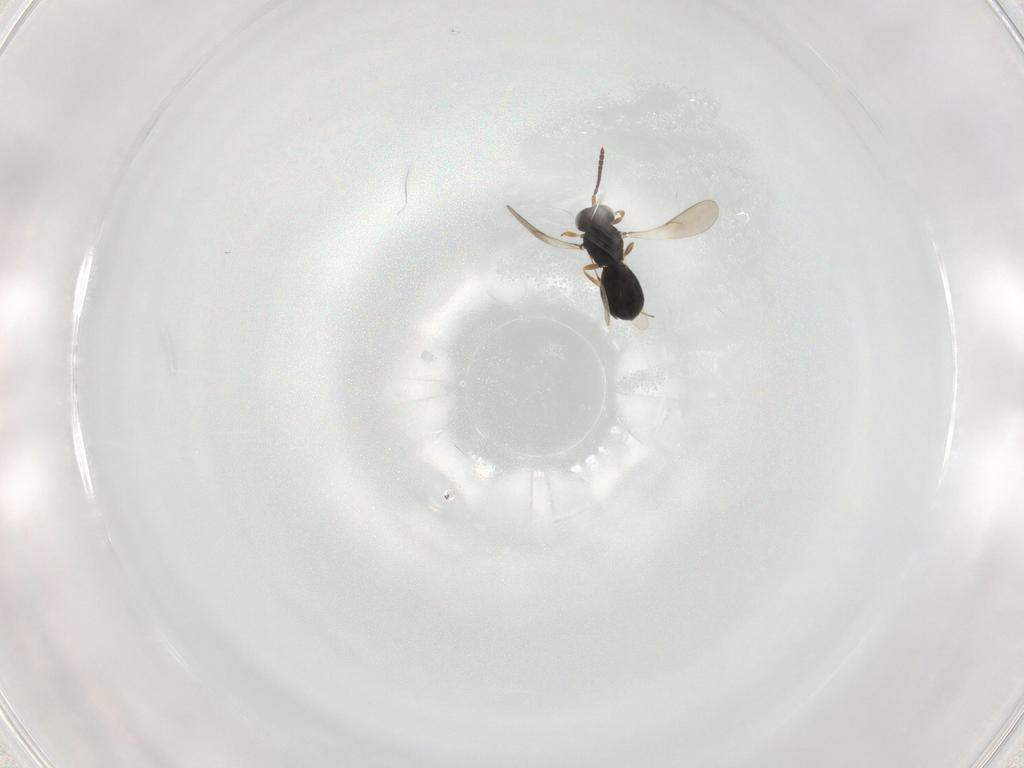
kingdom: Animalia
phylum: Arthropoda
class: Insecta
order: Hymenoptera
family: Scelionidae
